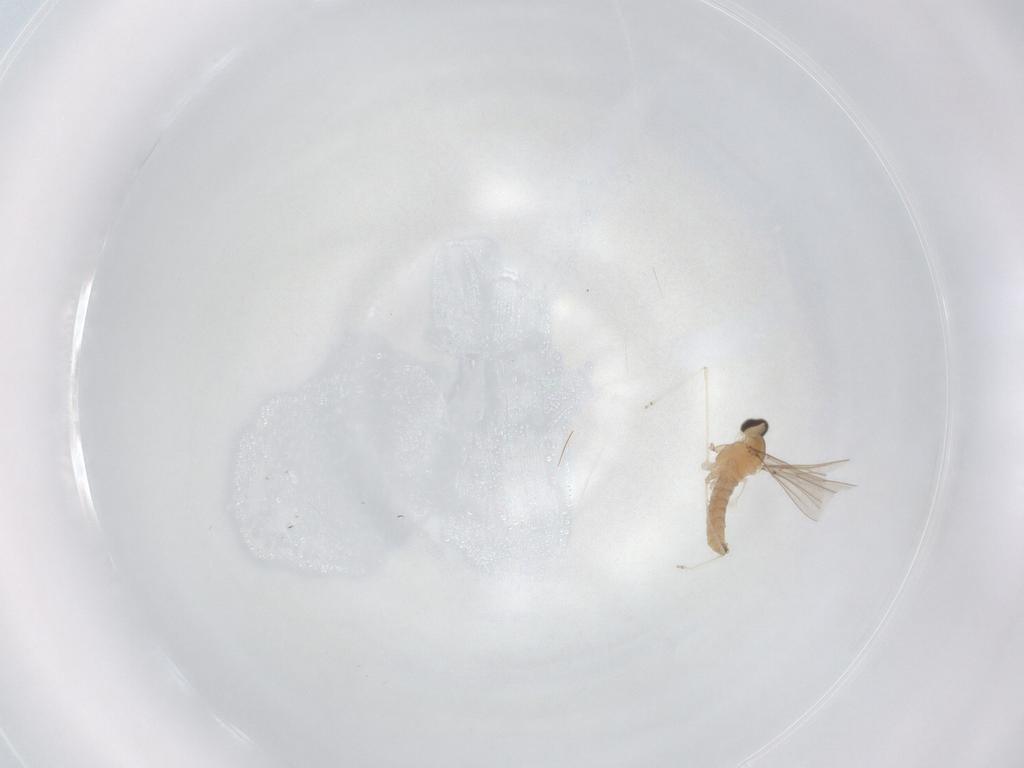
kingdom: Animalia
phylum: Arthropoda
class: Insecta
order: Diptera
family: Cecidomyiidae
